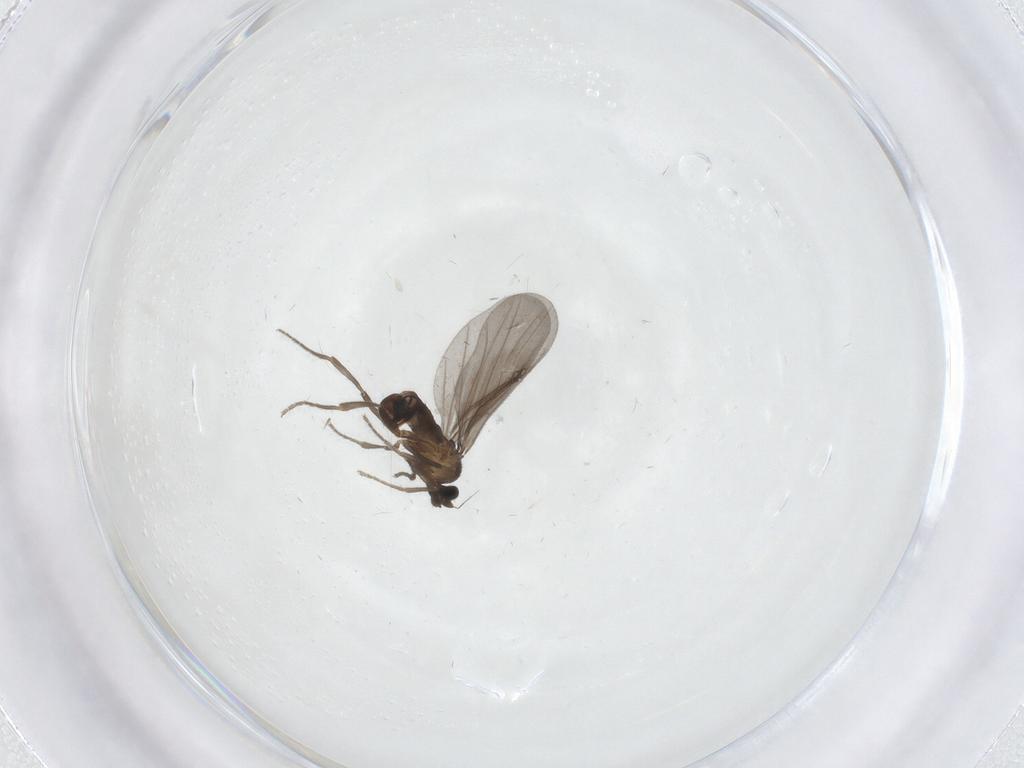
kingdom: Animalia
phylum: Arthropoda
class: Insecta
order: Diptera
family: Phoridae
